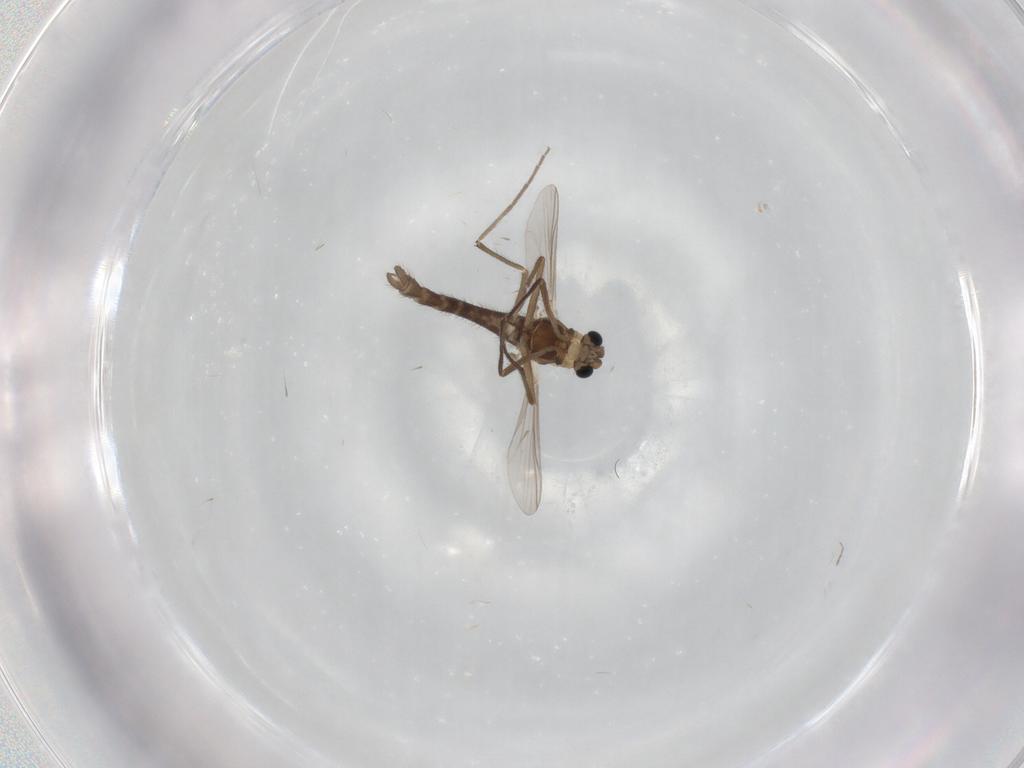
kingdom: Animalia
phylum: Arthropoda
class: Insecta
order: Diptera
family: Chironomidae
